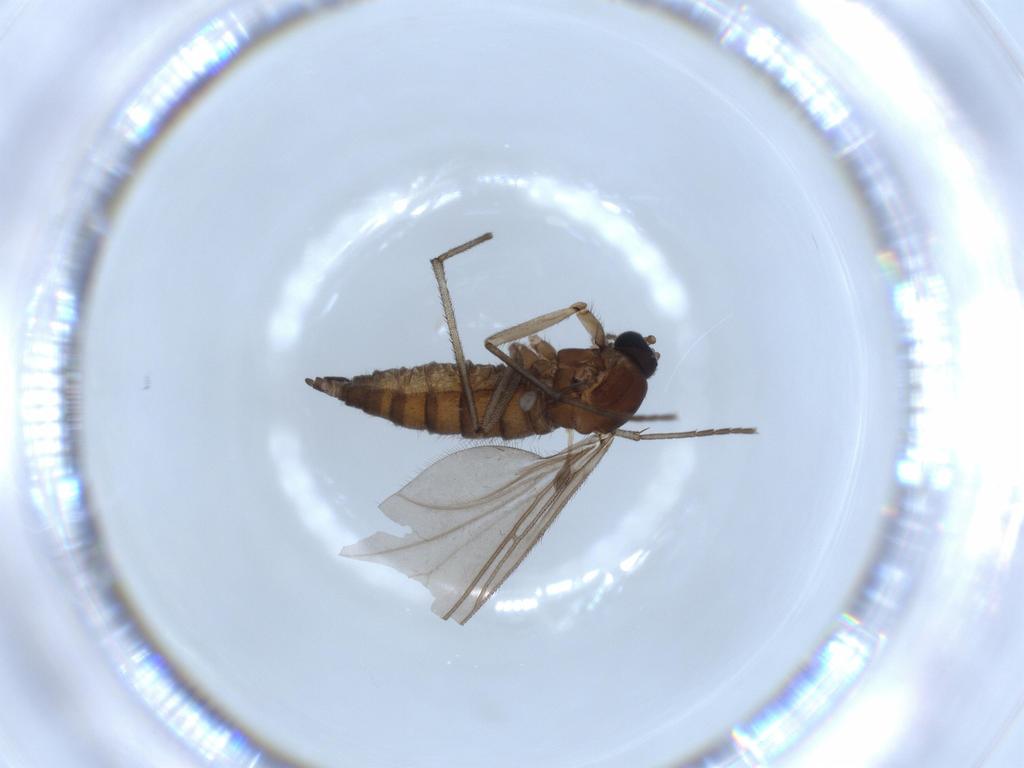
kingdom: Animalia
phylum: Arthropoda
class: Insecta
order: Diptera
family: Sciaridae
